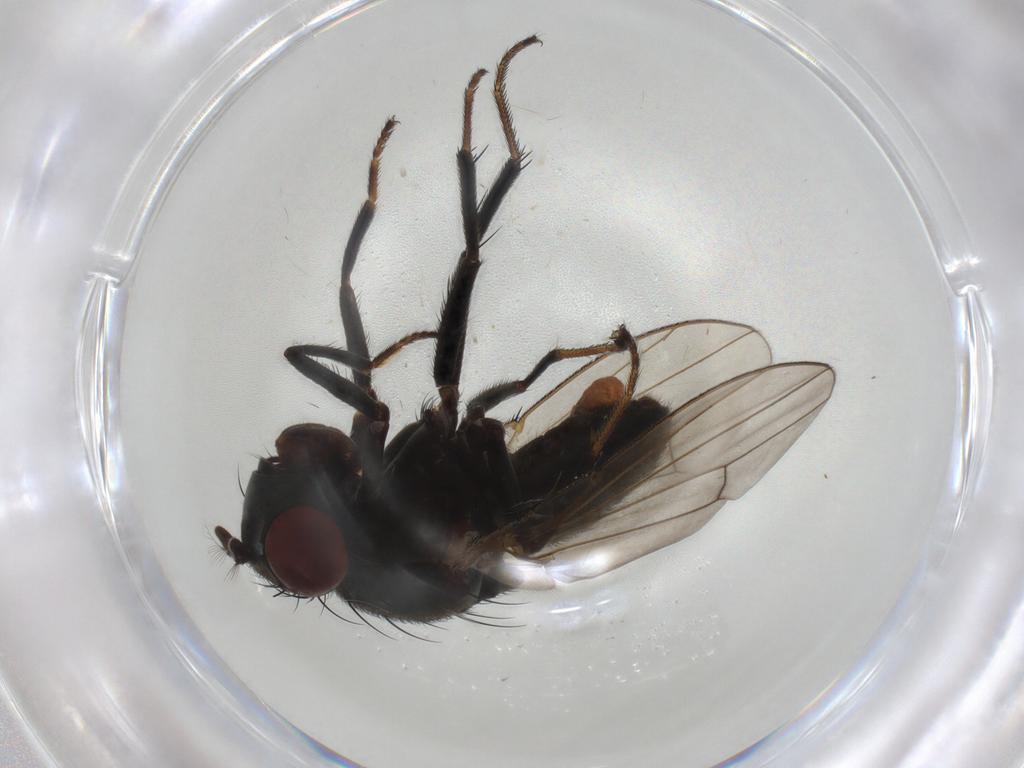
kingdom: Animalia
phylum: Arthropoda
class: Insecta
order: Diptera
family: Ephydridae
